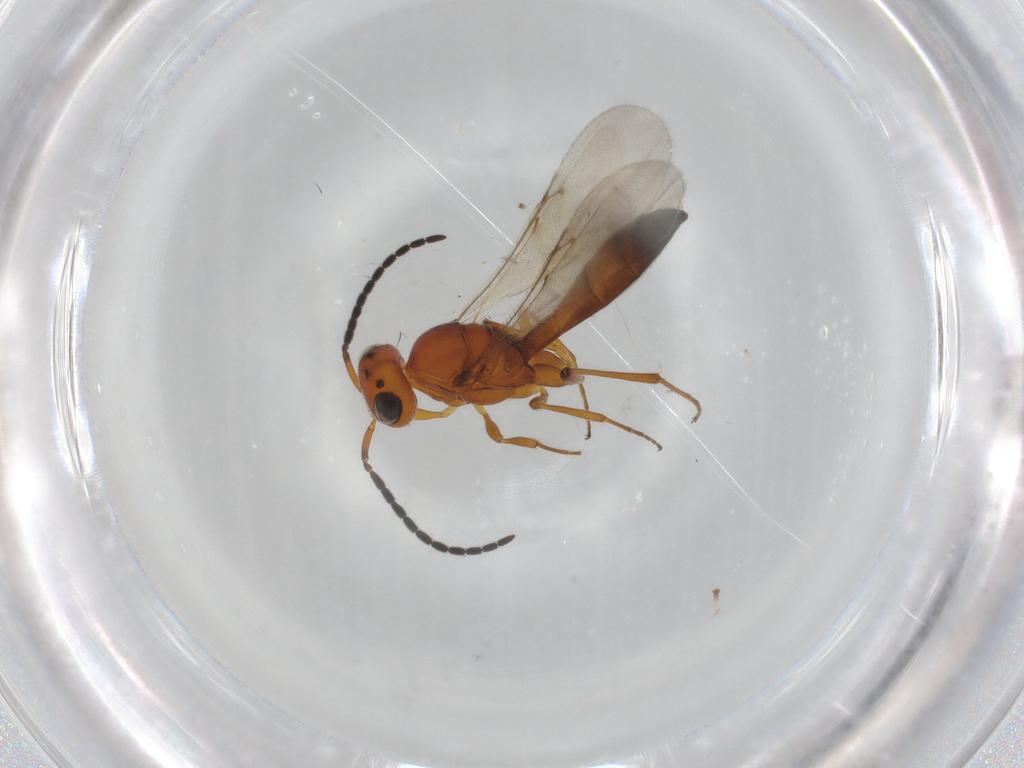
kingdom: Animalia
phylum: Arthropoda
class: Insecta
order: Hymenoptera
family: Scelionidae
